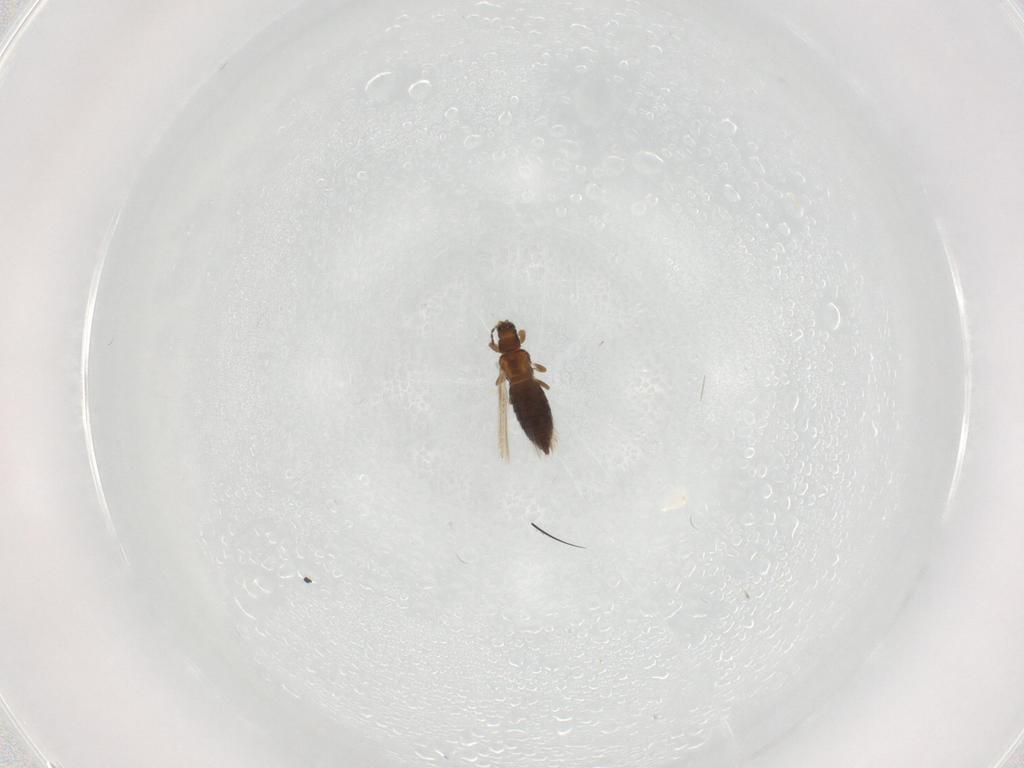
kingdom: Animalia
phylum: Arthropoda
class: Insecta
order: Thysanoptera
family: Thripidae
